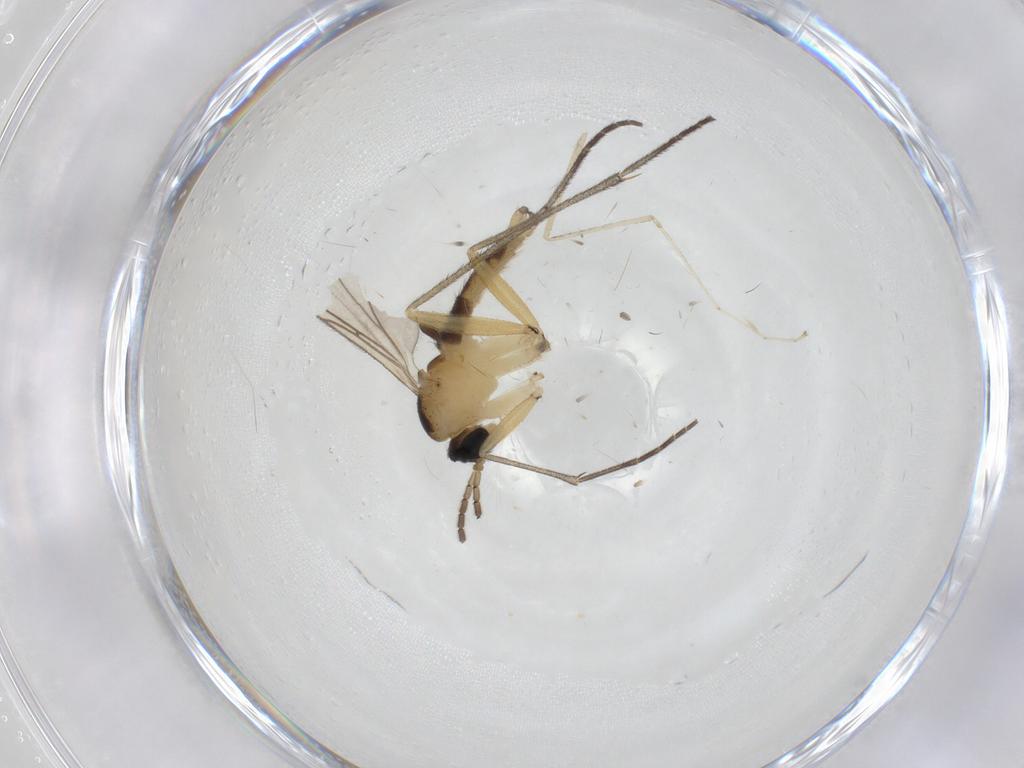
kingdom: Animalia
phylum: Arthropoda
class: Insecta
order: Diptera
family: Sciaridae
